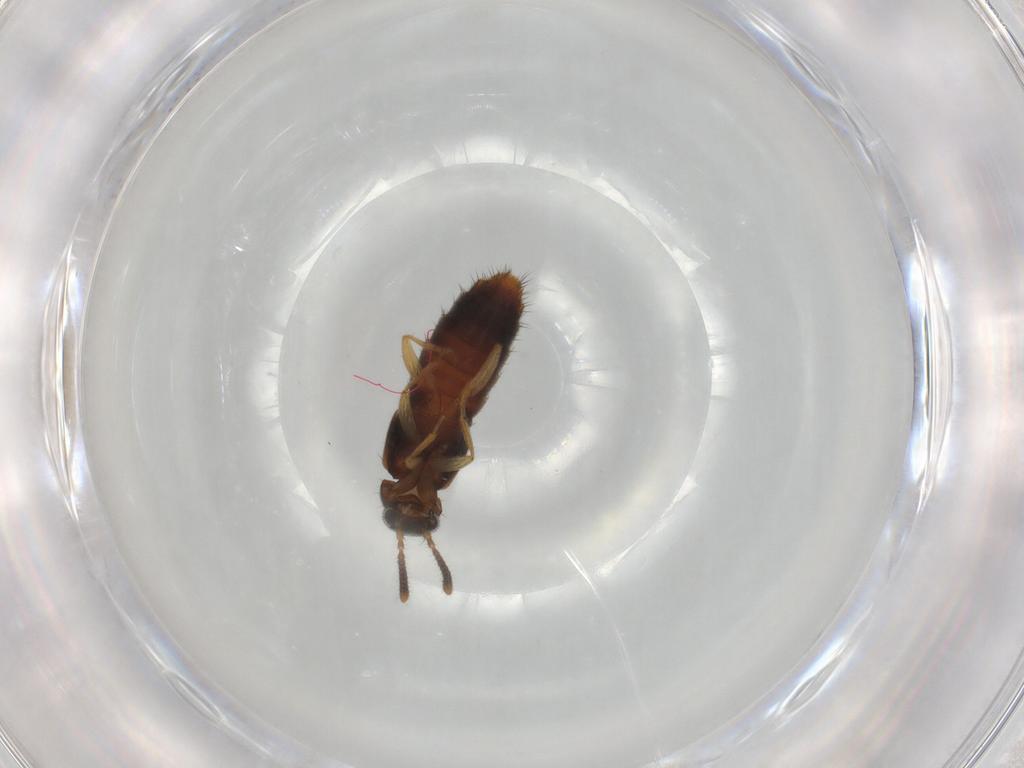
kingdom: Animalia
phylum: Arthropoda
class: Insecta
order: Coleoptera
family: Staphylinidae
